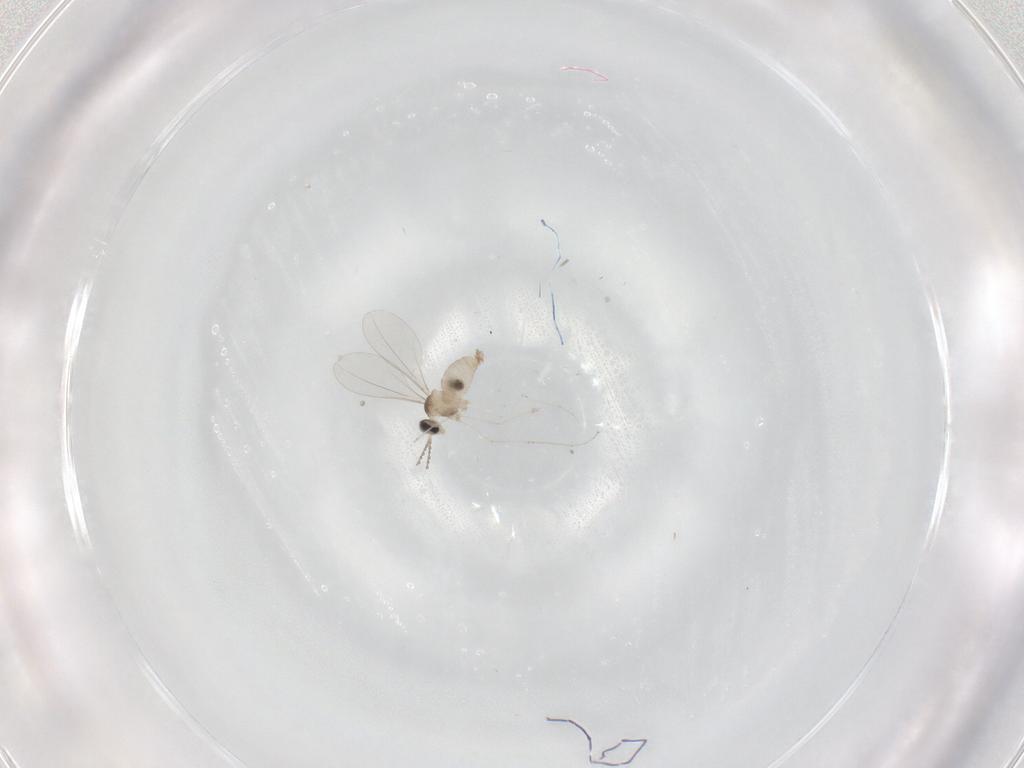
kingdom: Animalia
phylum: Arthropoda
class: Insecta
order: Diptera
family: Cecidomyiidae
